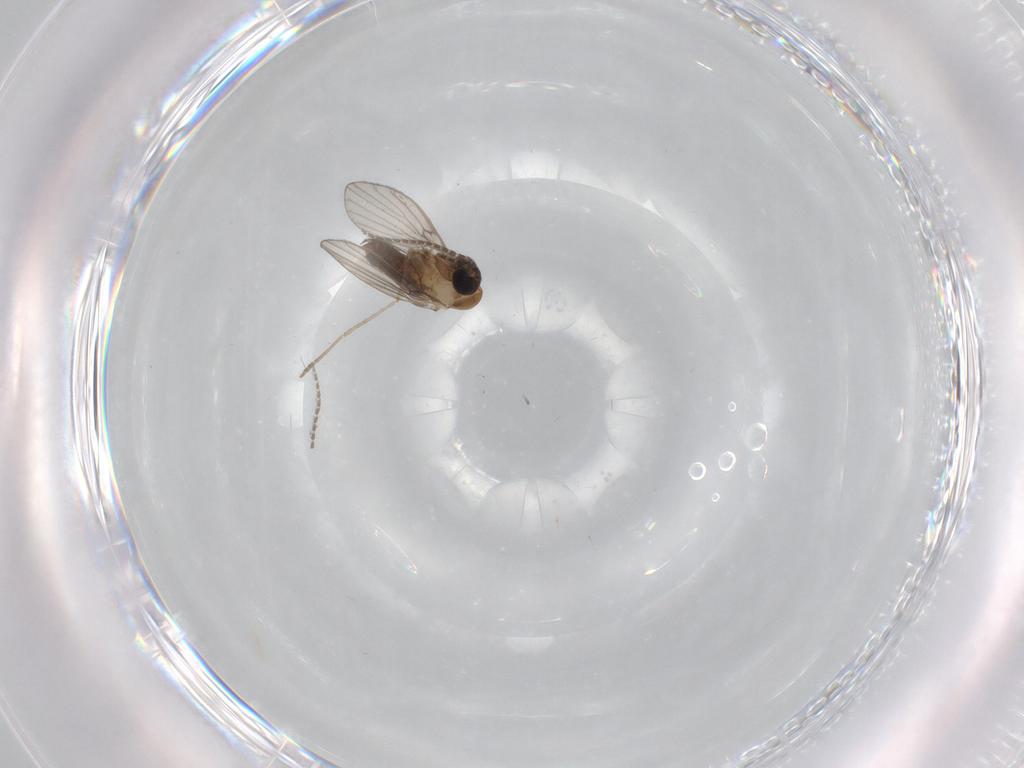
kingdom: Animalia
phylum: Arthropoda
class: Insecta
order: Diptera
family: Psychodidae
